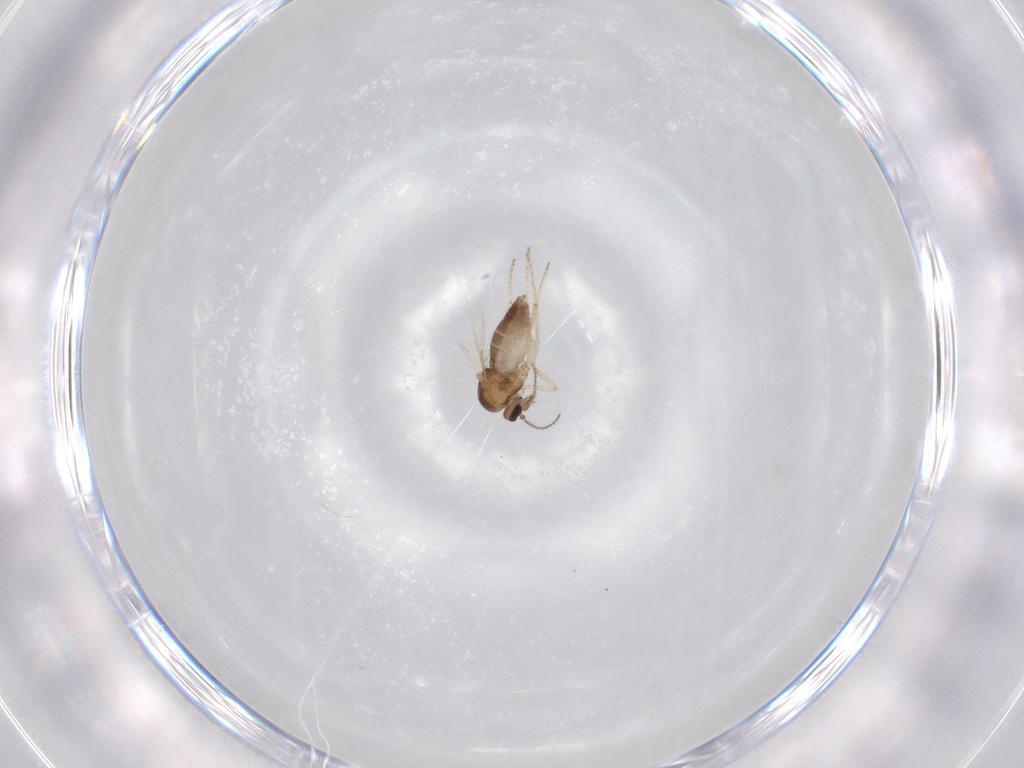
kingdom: Animalia
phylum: Arthropoda
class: Insecta
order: Diptera
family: Ceratopogonidae
